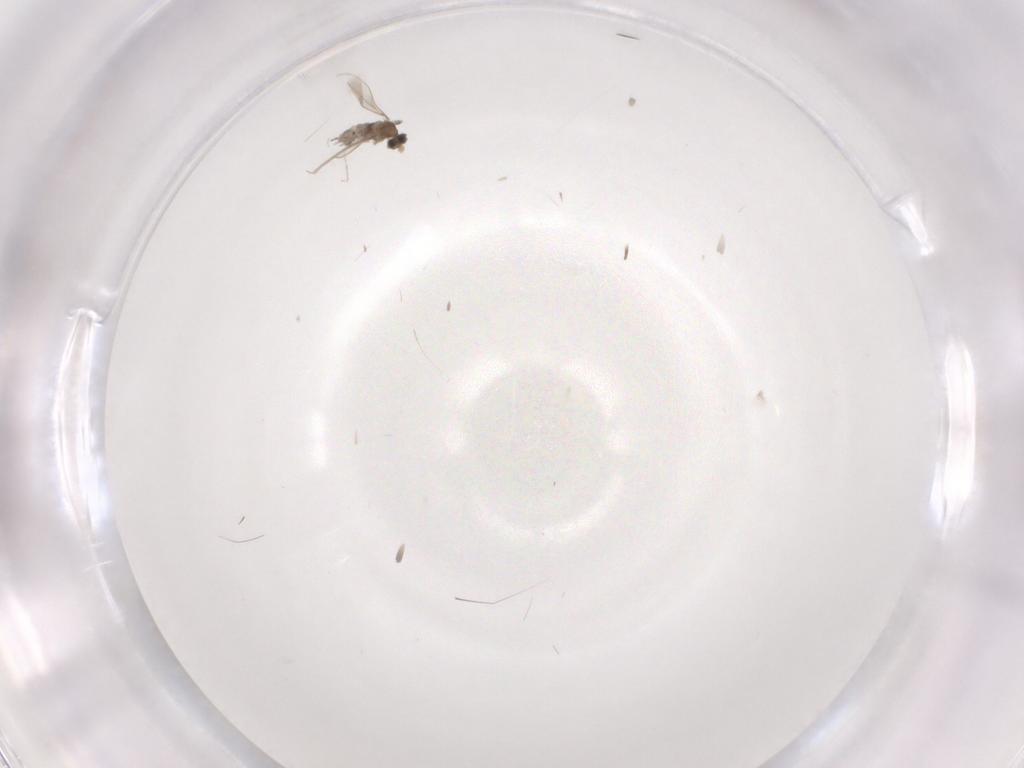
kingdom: Animalia
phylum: Arthropoda
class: Insecta
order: Diptera
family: Cecidomyiidae
